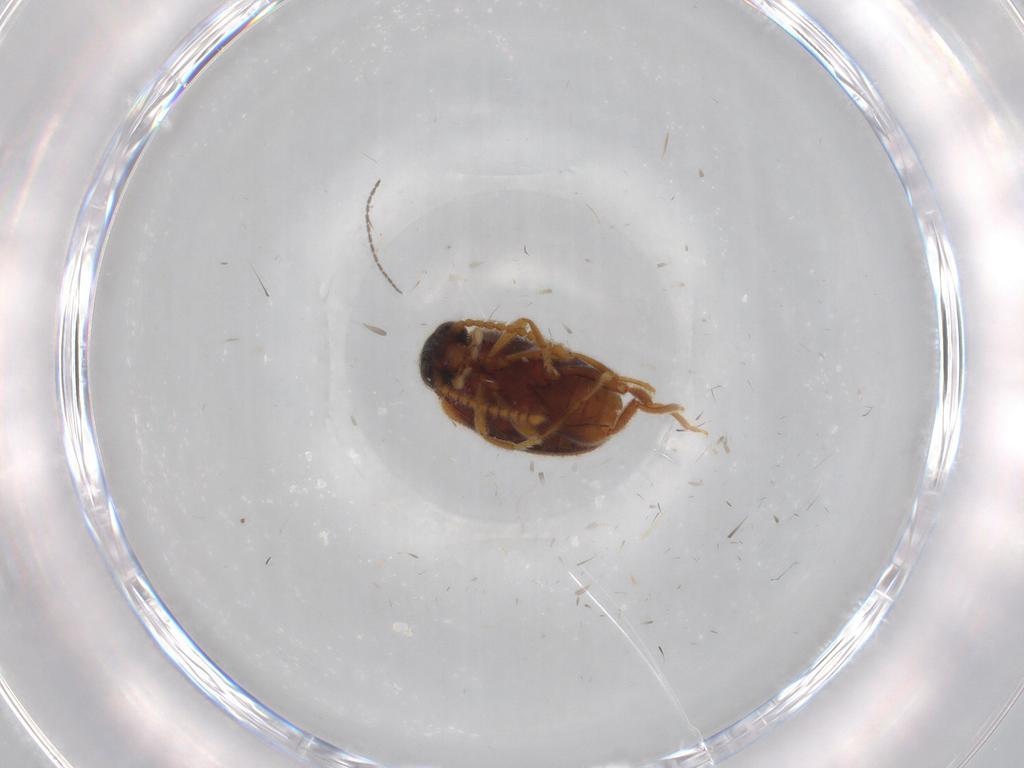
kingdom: Animalia
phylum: Arthropoda
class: Insecta
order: Coleoptera
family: Aderidae
